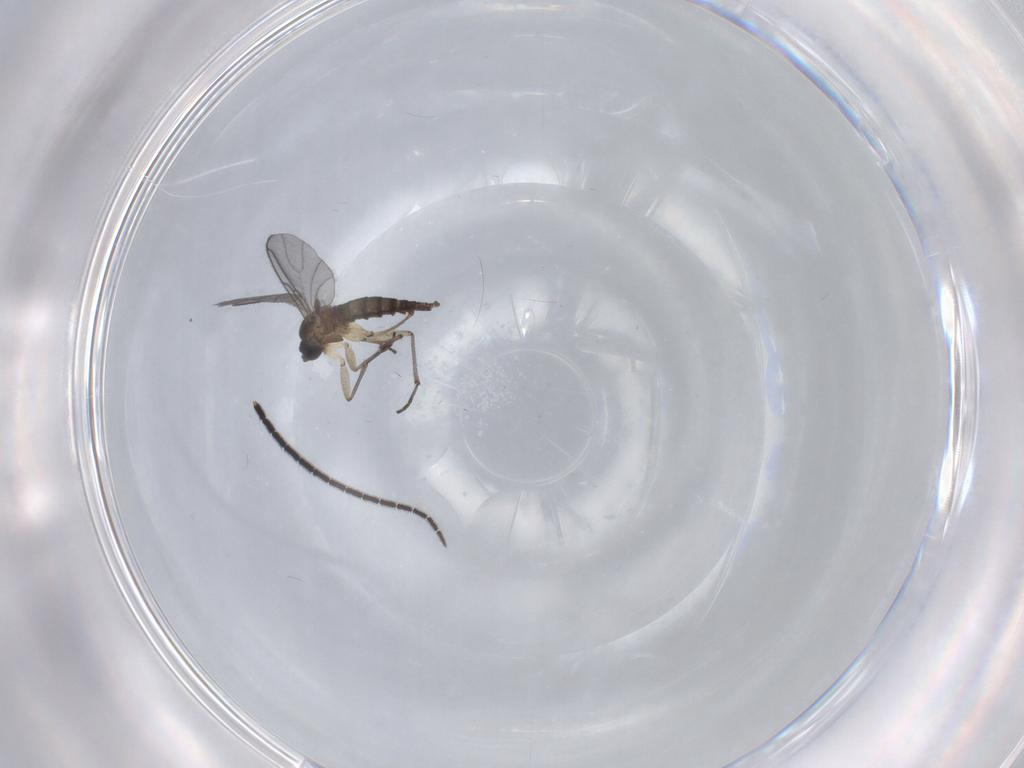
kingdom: Animalia
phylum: Arthropoda
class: Insecta
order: Diptera
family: Sciaridae
